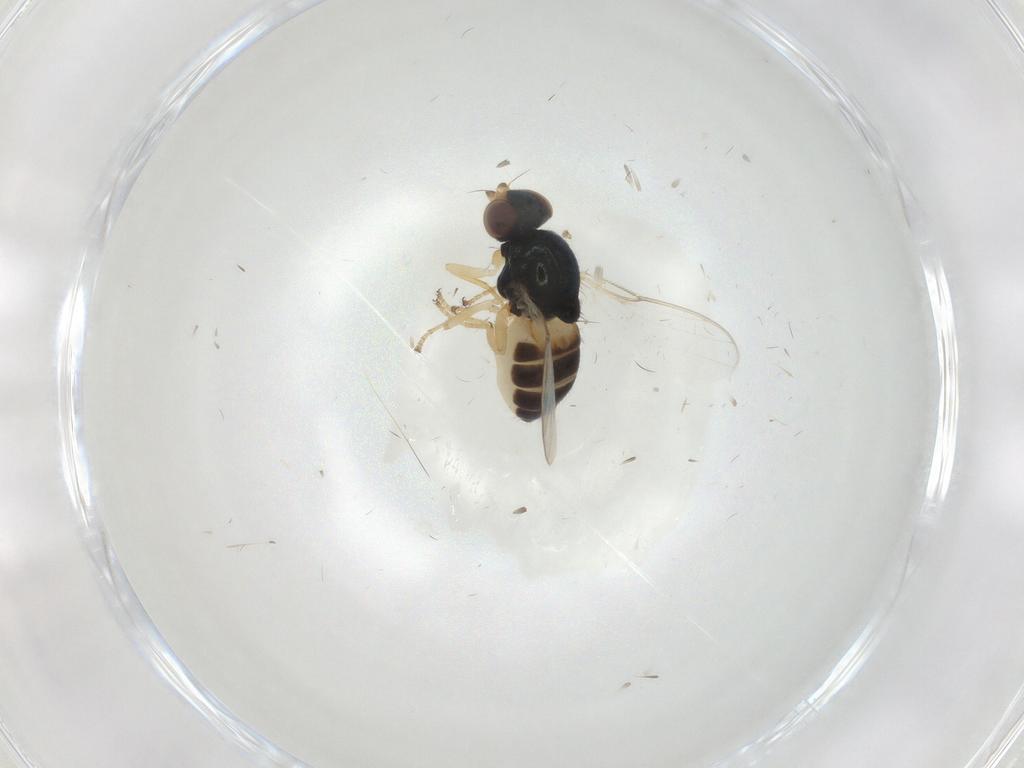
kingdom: Animalia
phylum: Arthropoda
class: Insecta
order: Diptera
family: Chloropidae
